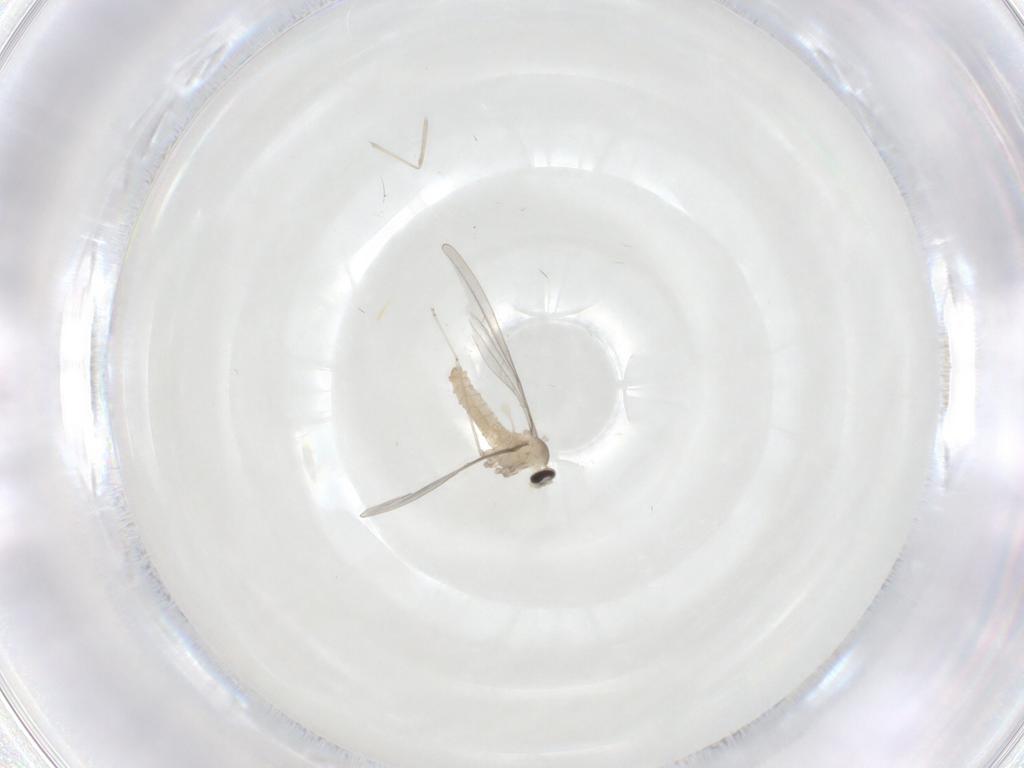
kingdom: Animalia
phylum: Arthropoda
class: Insecta
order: Diptera
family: Cecidomyiidae
